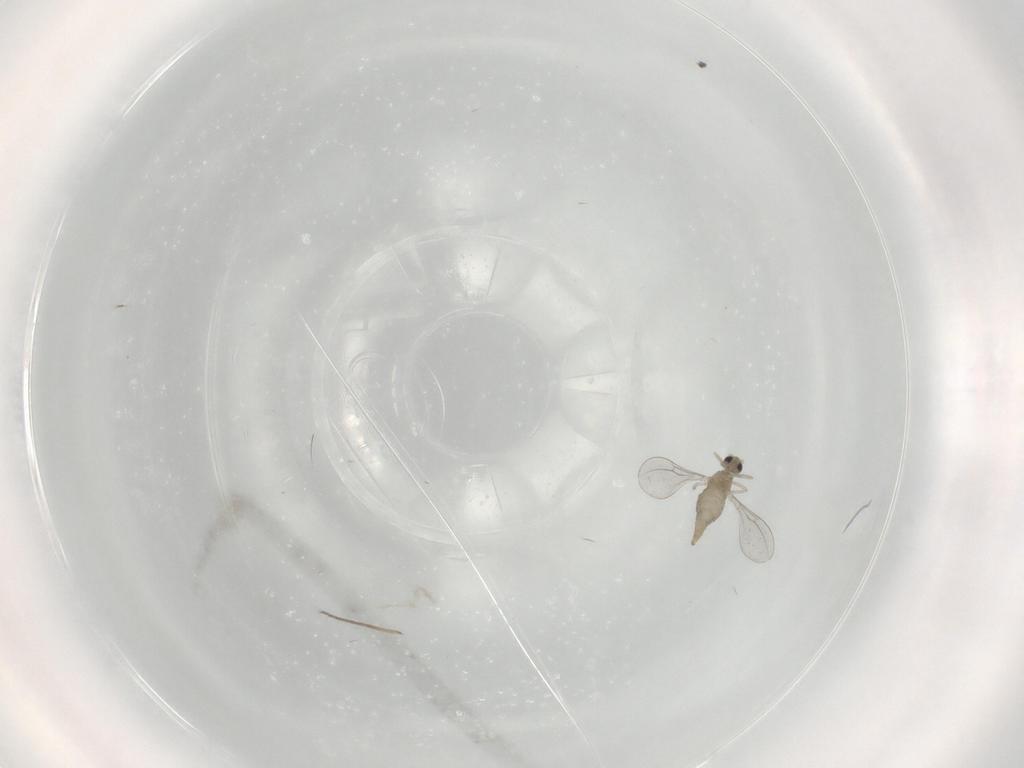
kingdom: Animalia
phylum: Arthropoda
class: Insecta
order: Diptera
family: Cecidomyiidae
